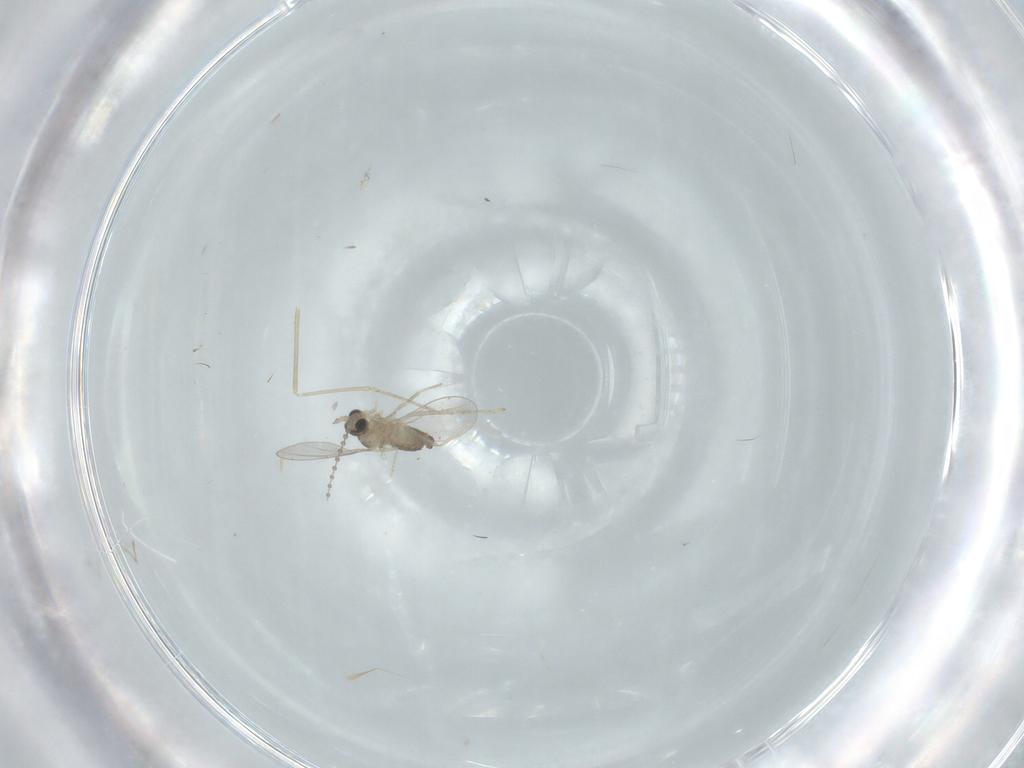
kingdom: Animalia
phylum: Arthropoda
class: Insecta
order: Diptera
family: Cecidomyiidae
